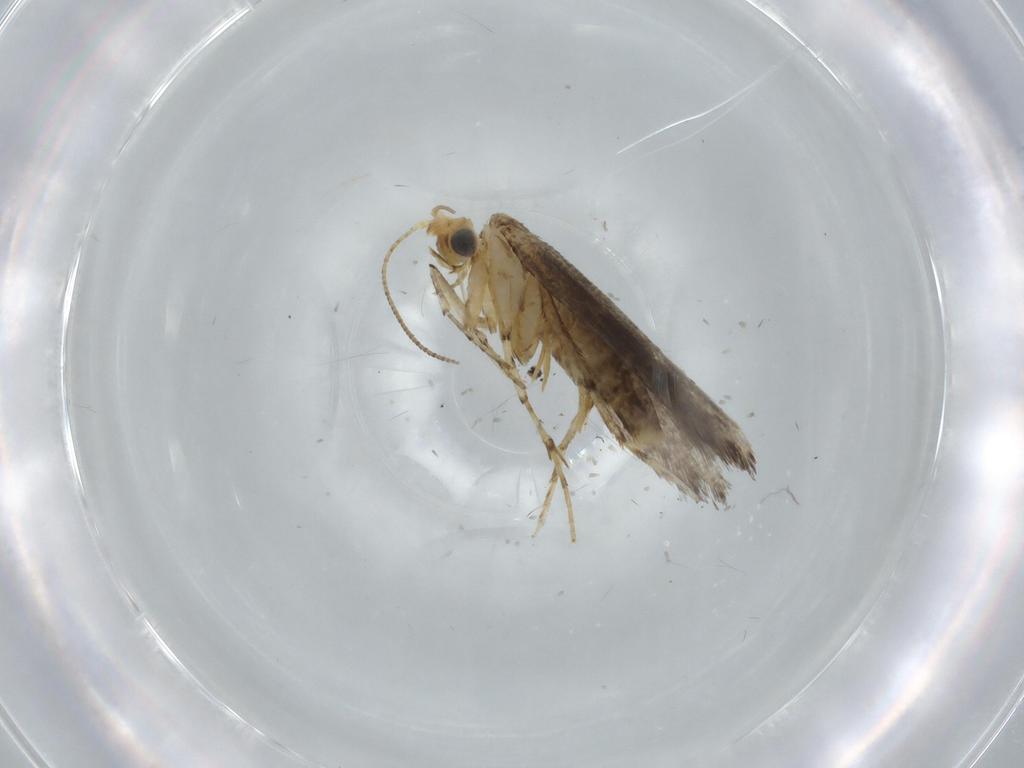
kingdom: Animalia
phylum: Arthropoda
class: Insecta
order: Lepidoptera
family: Argyresthiidae
